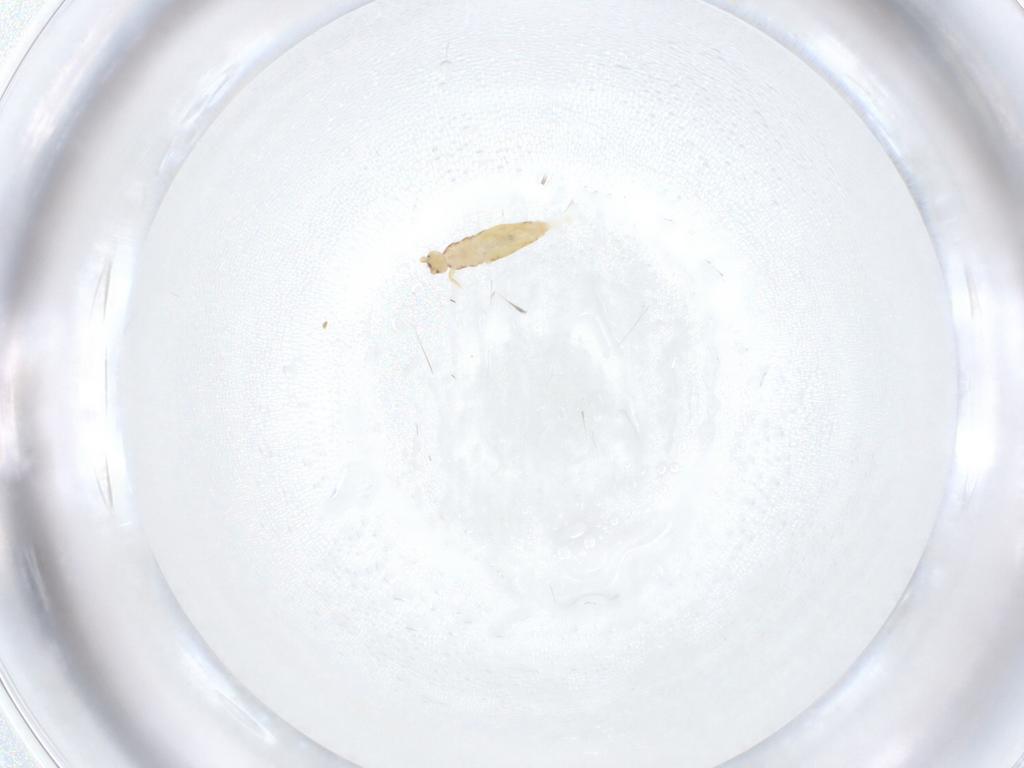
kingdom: Animalia
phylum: Arthropoda
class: Collembola
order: Entomobryomorpha
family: Entomobryidae
